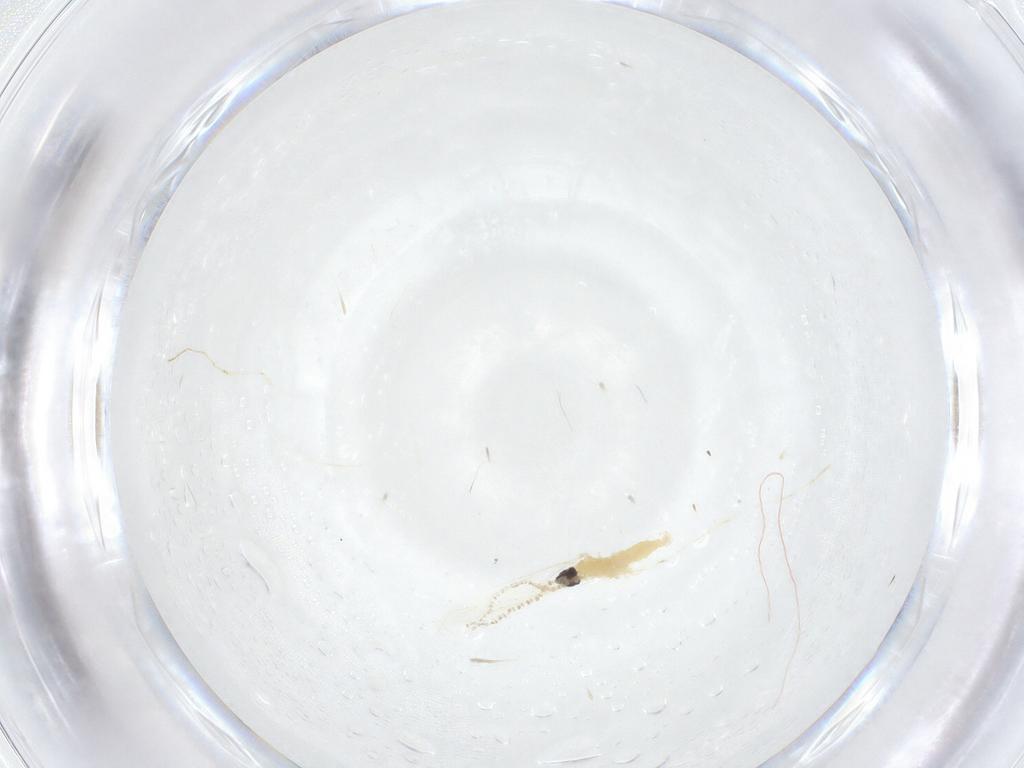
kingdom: Animalia
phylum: Arthropoda
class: Insecta
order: Diptera
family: Cecidomyiidae
